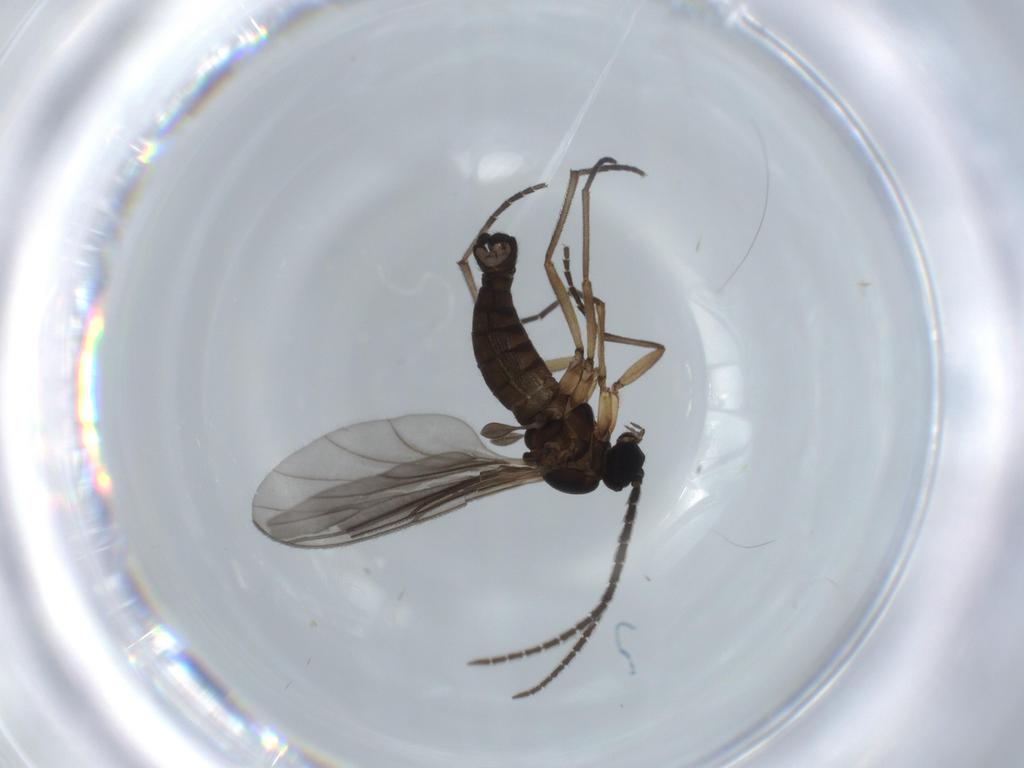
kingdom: Animalia
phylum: Arthropoda
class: Insecta
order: Diptera
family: Sciaridae
